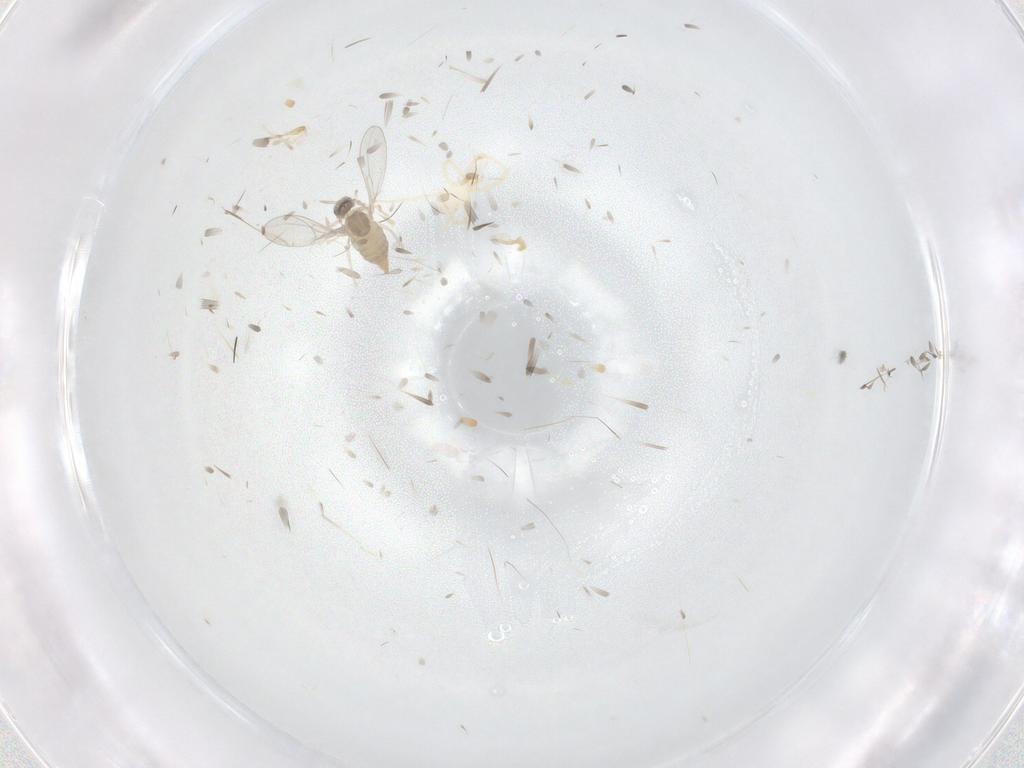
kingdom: Animalia
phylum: Arthropoda
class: Insecta
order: Diptera
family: Cecidomyiidae
